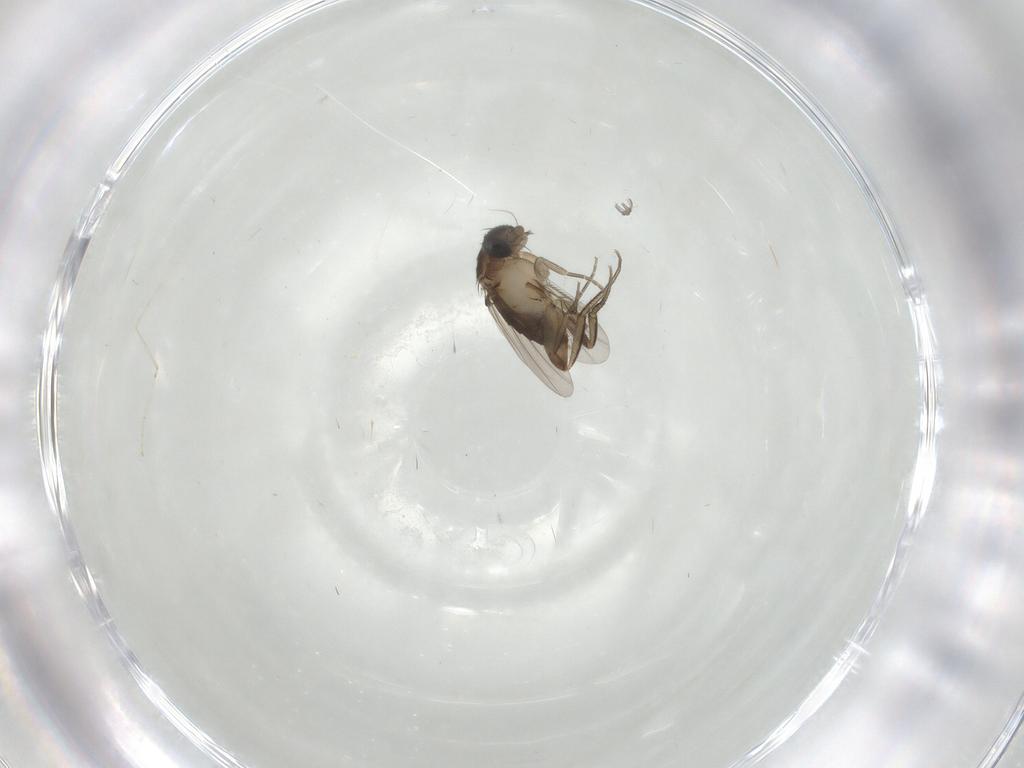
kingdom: Animalia
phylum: Arthropoda
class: Insecta
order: Diptera
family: Phoridae
